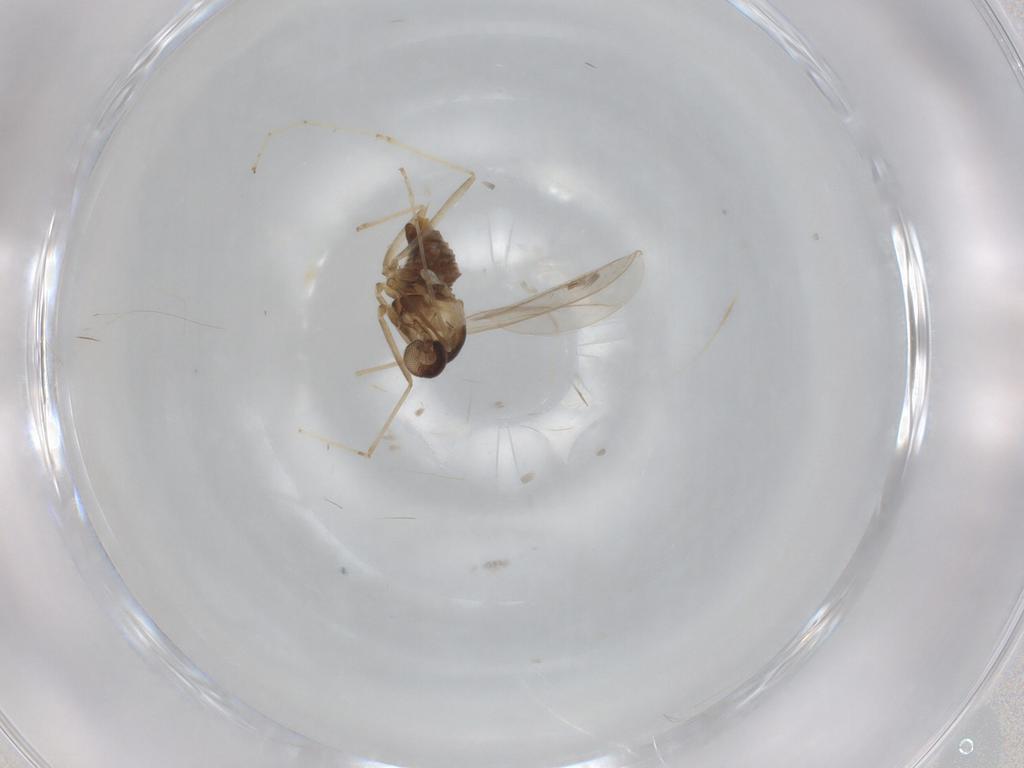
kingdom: Animalia
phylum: Arthropoda
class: Insecta
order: Diptera
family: Cecidomyiidae
